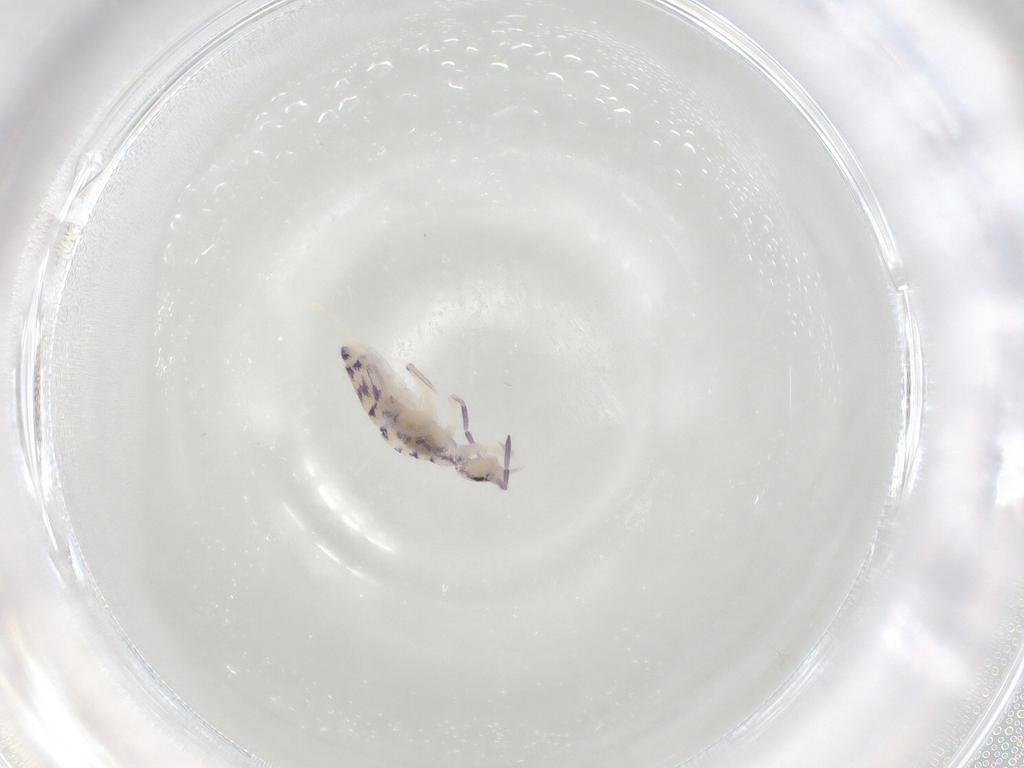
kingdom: Animalia
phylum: Arthropoda
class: Collembola
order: Entomobryomorpha
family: Entomobryidae
